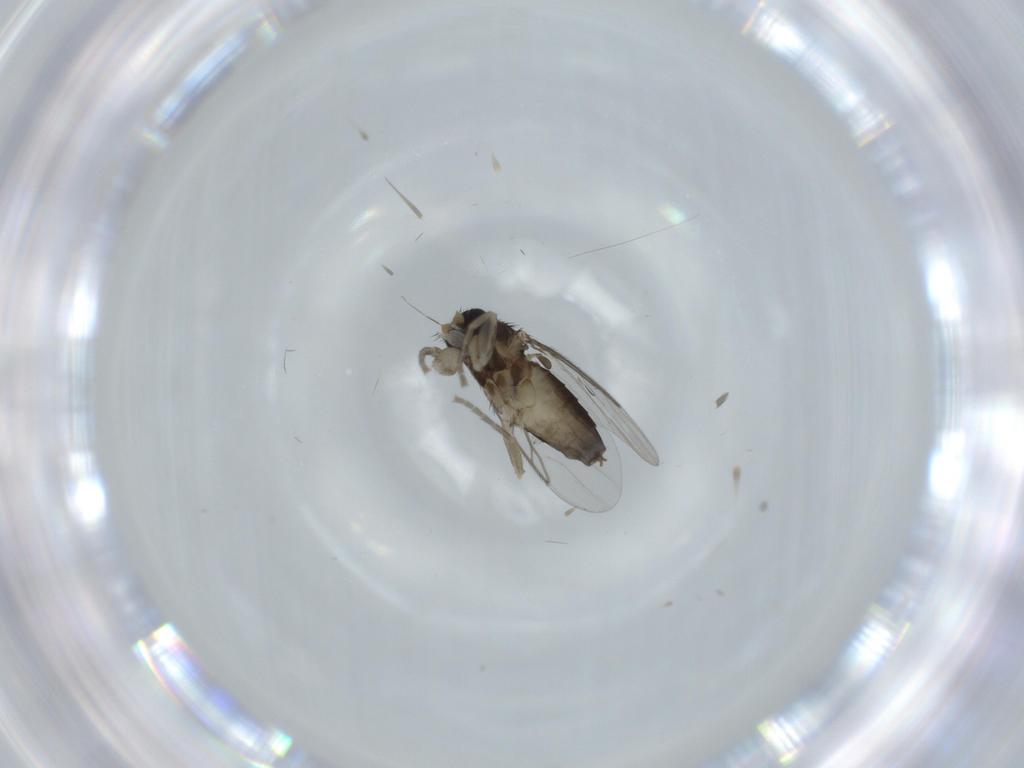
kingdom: Animalia
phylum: Arthropoda
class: Insecta
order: Diptera
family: Phoridae
